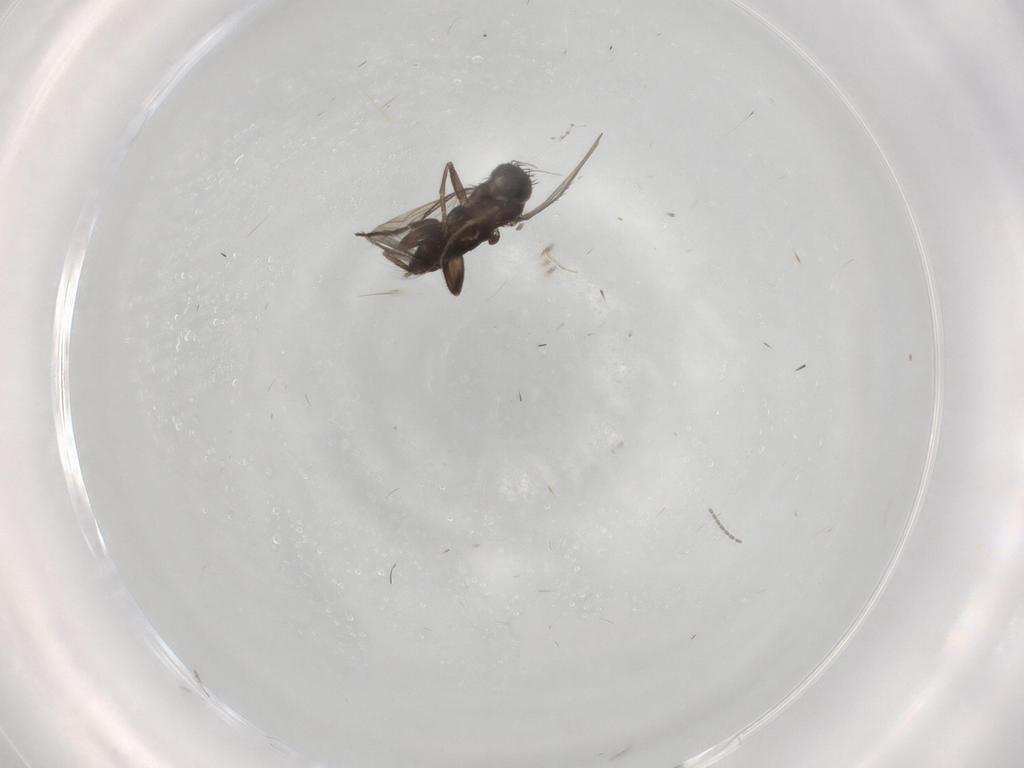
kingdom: Animalia
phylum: Arthropoda
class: Insecta
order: Diptera
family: Phoridae
